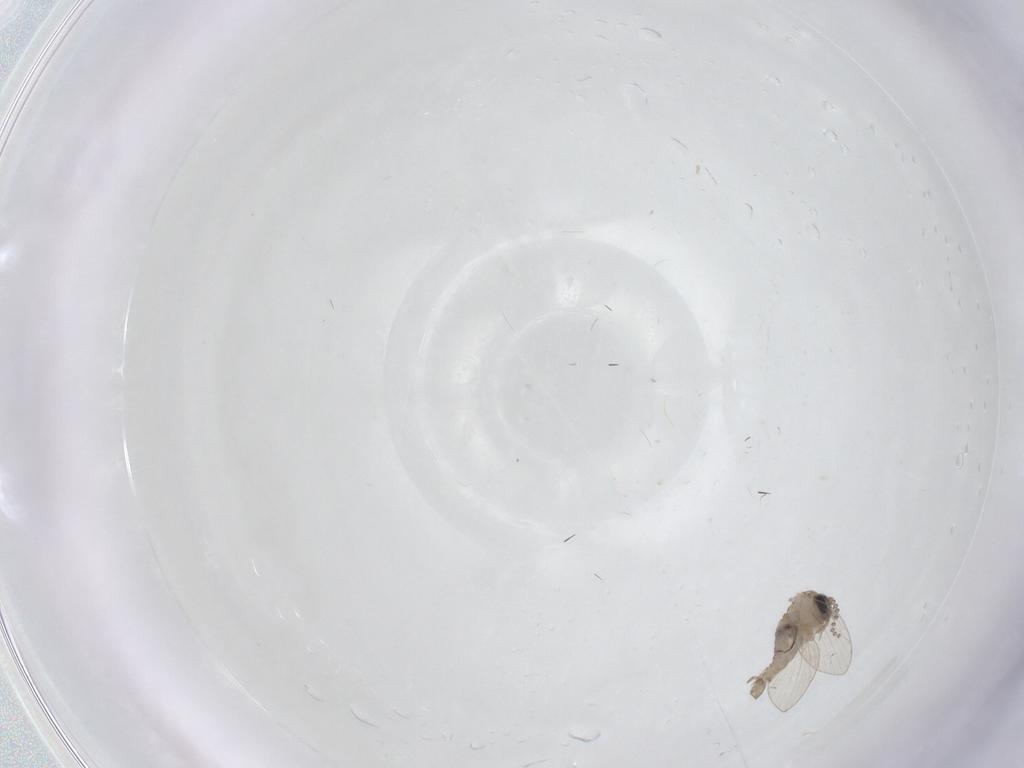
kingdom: Animalia
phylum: Arthropoda
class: Insecta
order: Diptera
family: Psychodidae
